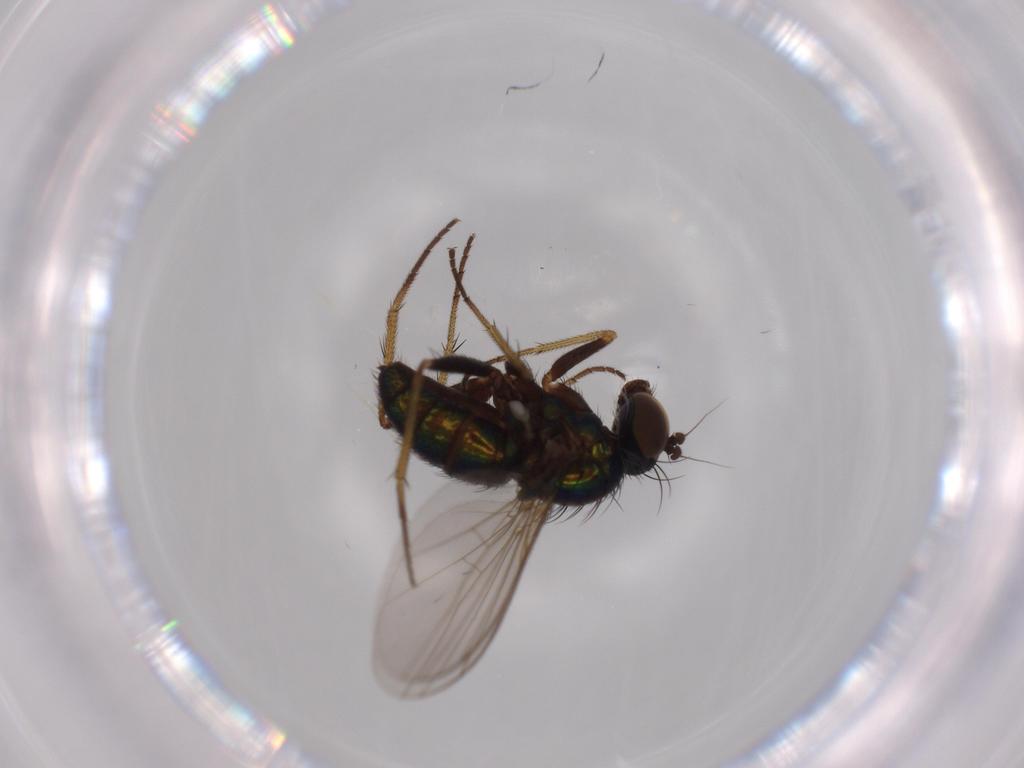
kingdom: Animalia
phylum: Arthropoda
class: Insecta
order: Diptera
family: Dolichopodidae
